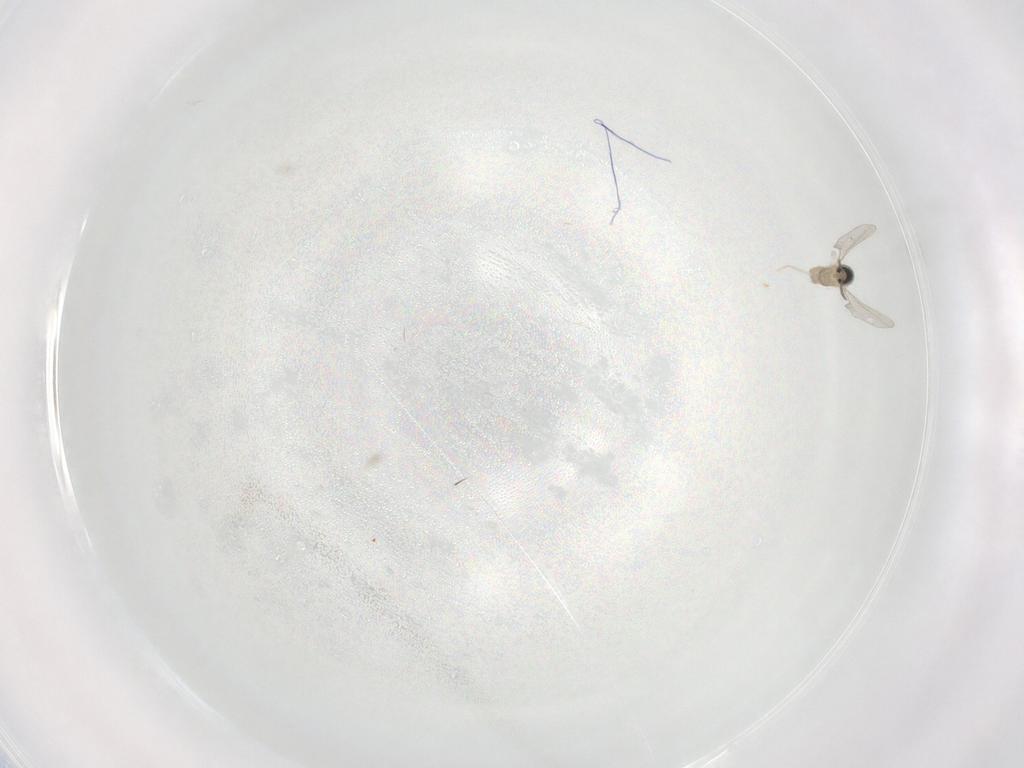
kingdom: Animalia
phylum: Arthropoda
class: Insecta
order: Diptera
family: Cecidomyiidae
